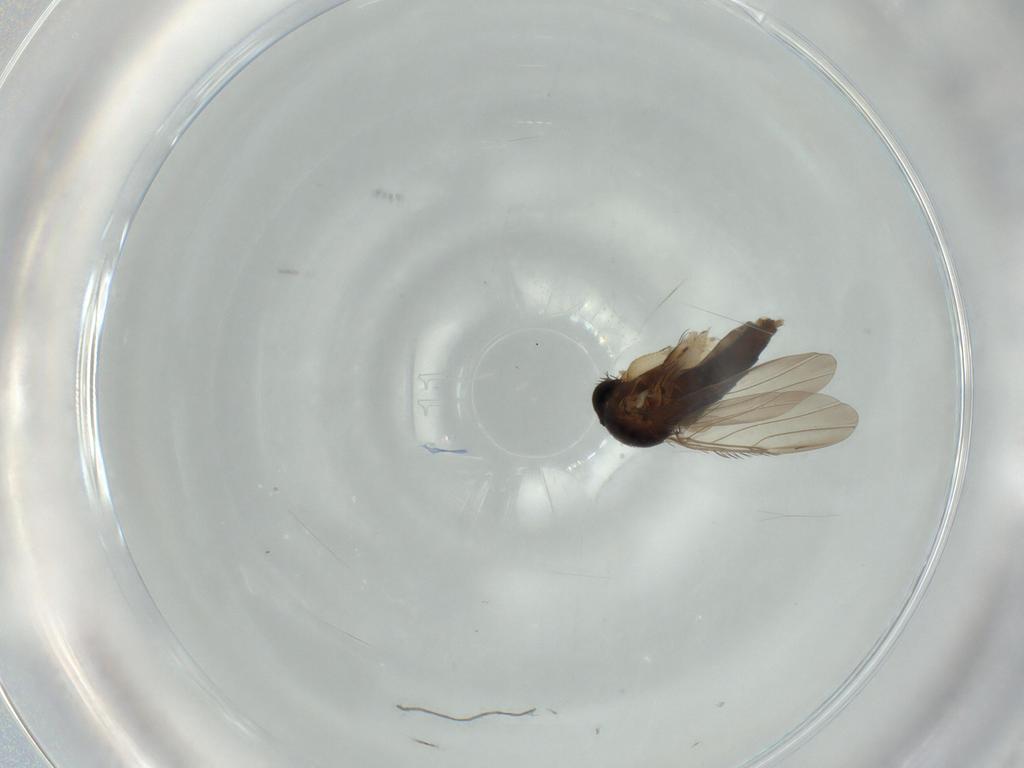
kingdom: Animalia
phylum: Arthropoda
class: Insecta
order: Diptera
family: Phoridae
